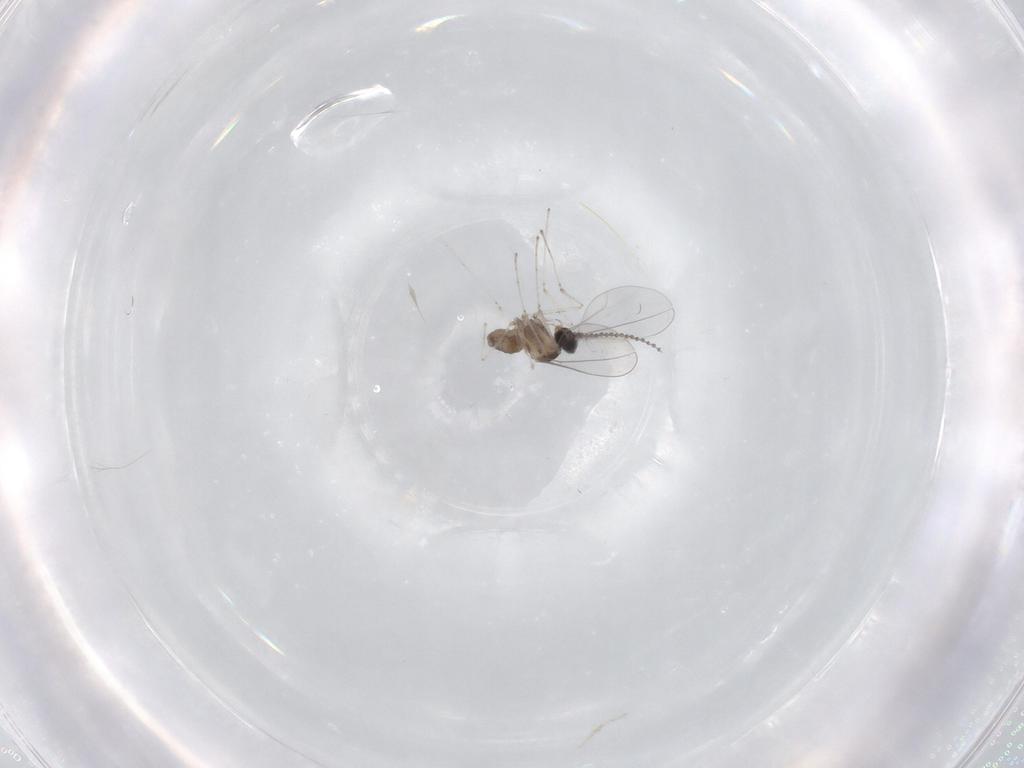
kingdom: Animalia
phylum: Arthropoda
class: Insecta
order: Diptera
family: Cecidomyiidae
